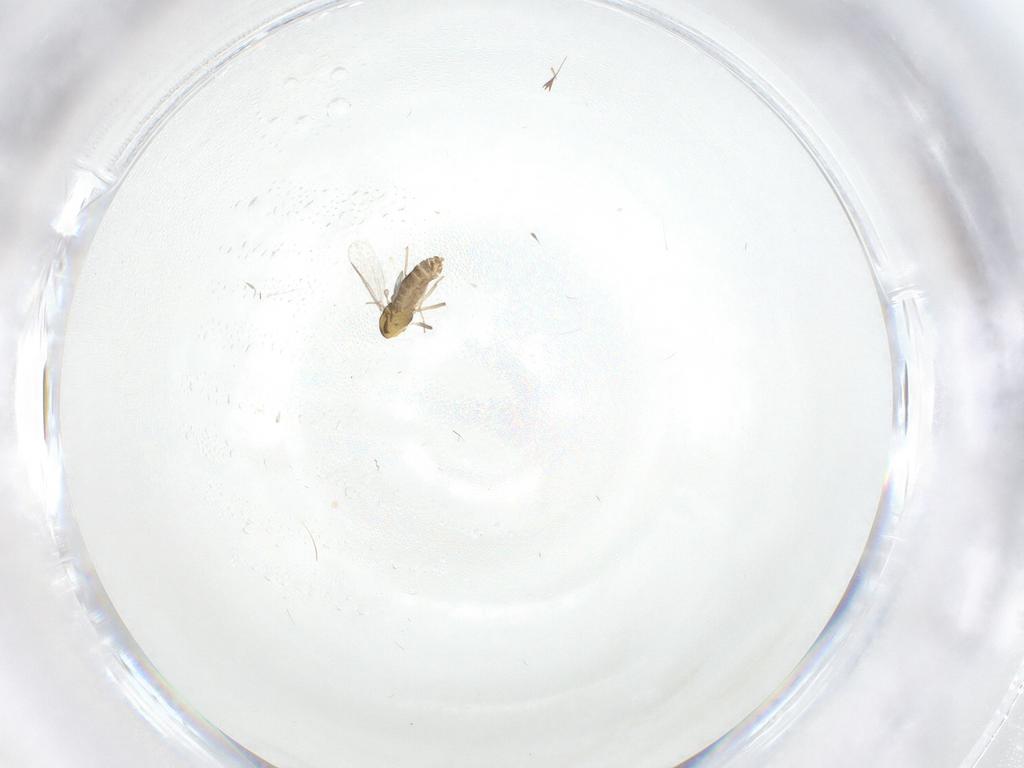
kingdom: Animalia
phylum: Arthropoda
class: Insecta
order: Diptera
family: Chironomidae
